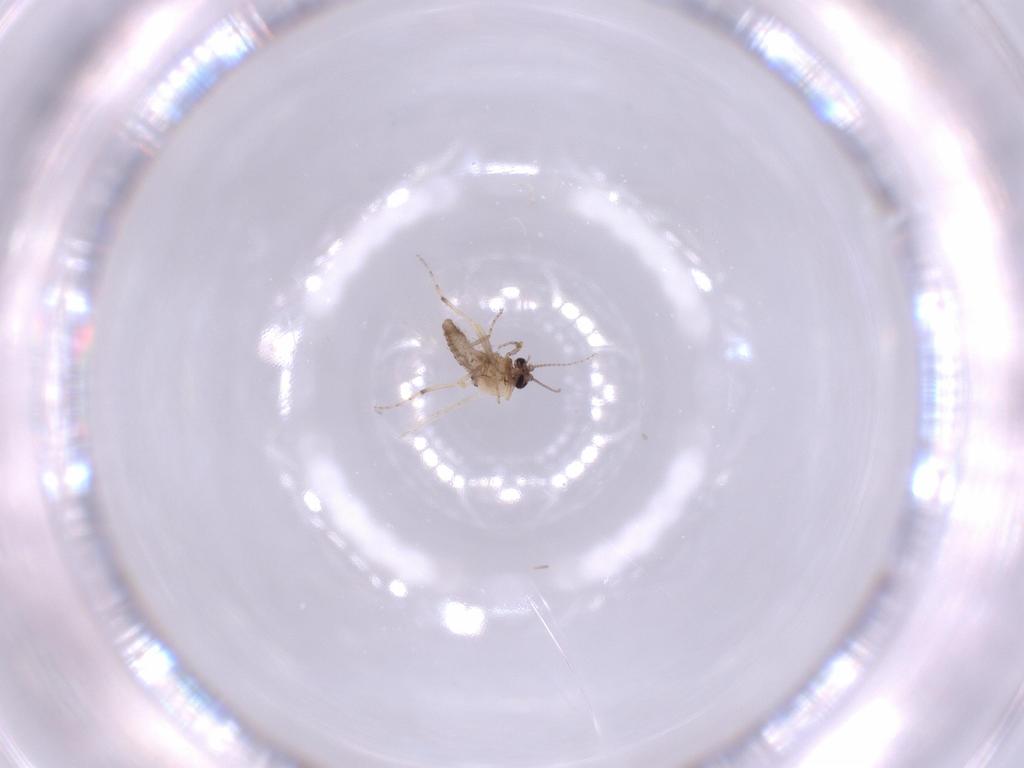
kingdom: Animalia
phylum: Arthropoda
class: Insecta
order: Diptera
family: Ceratopogonidae
